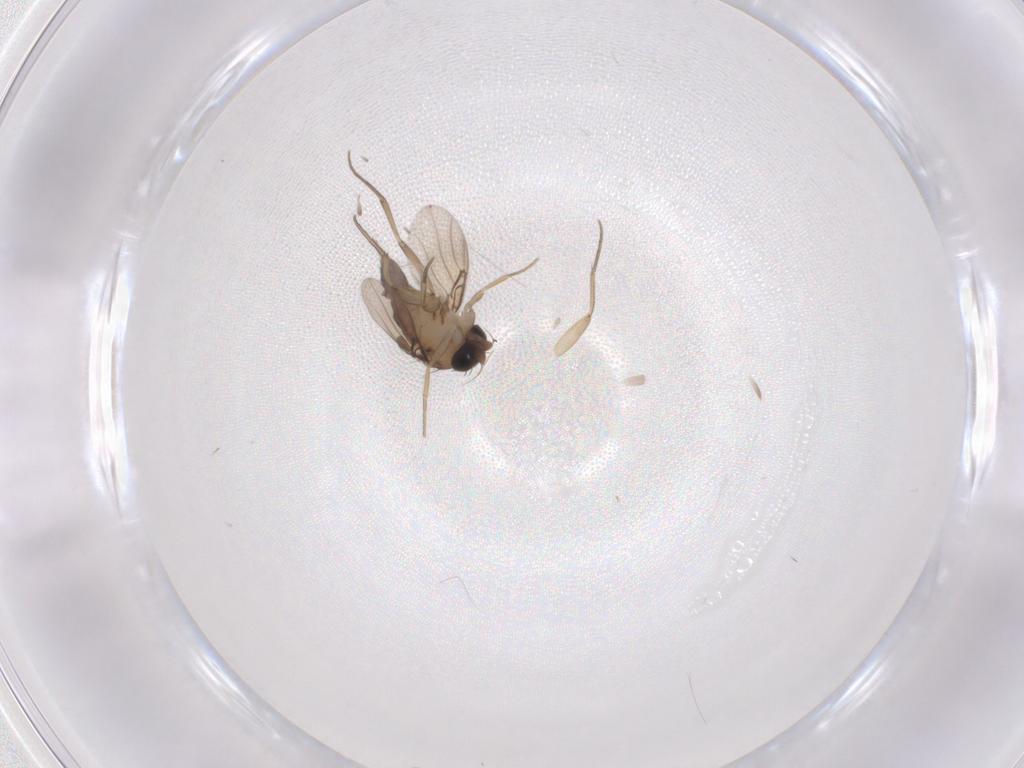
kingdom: Animalia
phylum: Arthropoda
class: Insecta
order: Diptera
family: Phoridae
